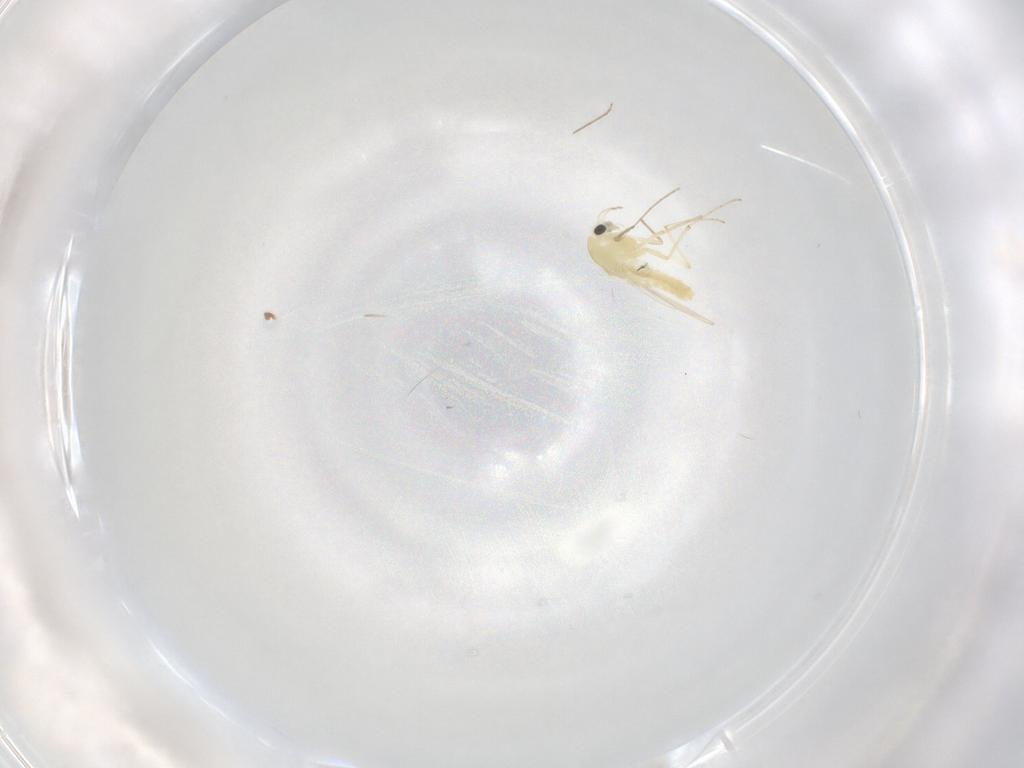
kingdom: Animalia
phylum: Arthropoda
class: Insecta
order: Diptera
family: Chironomidae
